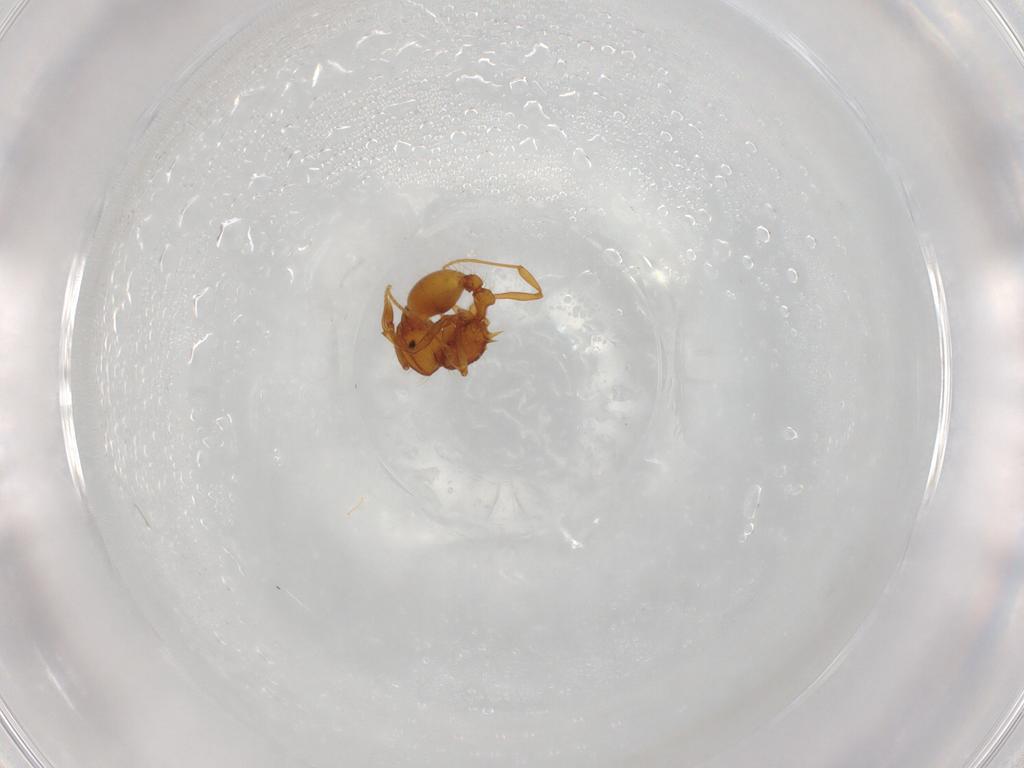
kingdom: Animalia
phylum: Arthropoda
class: Insecta
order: Hymenoptera
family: Formicidae
